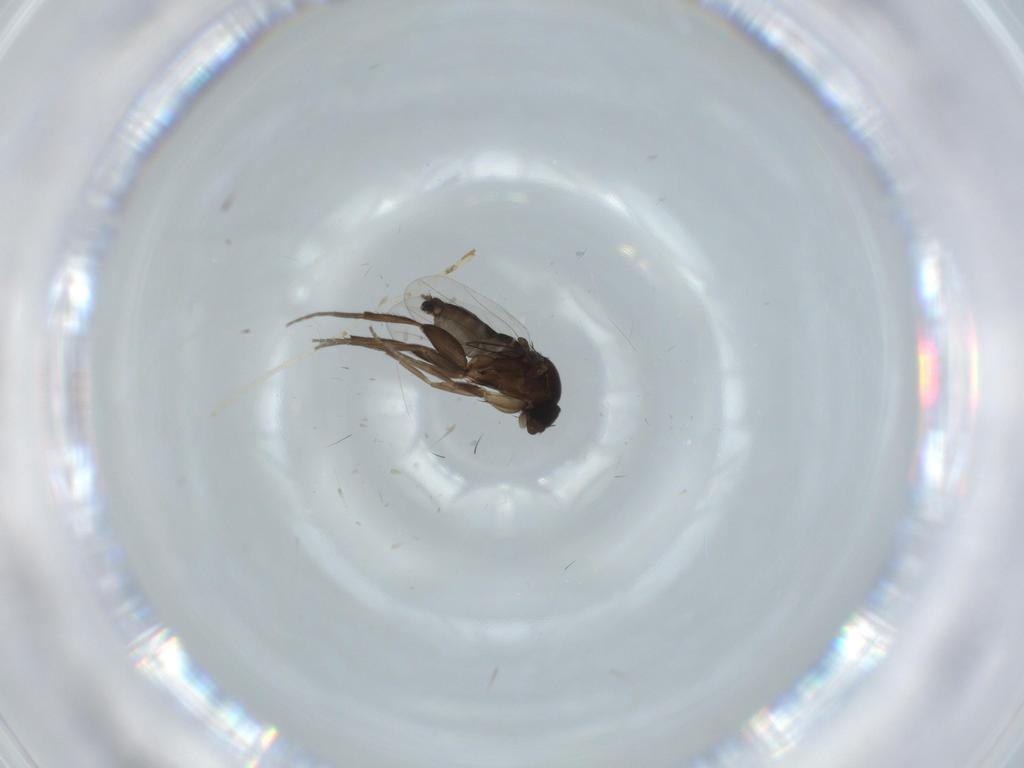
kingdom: Animalia
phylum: Arthropoda
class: Insecta
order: Diptera
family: Phoridae
